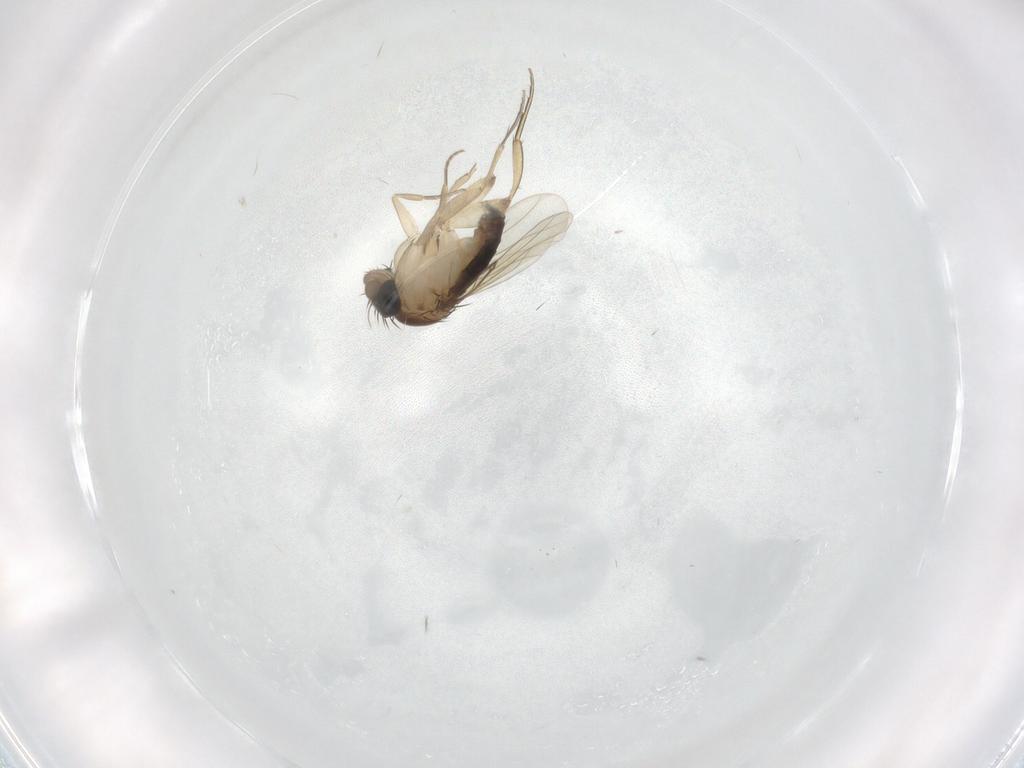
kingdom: Animalia
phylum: Arthropoda
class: Insecta
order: Diptera
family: Phoridae
